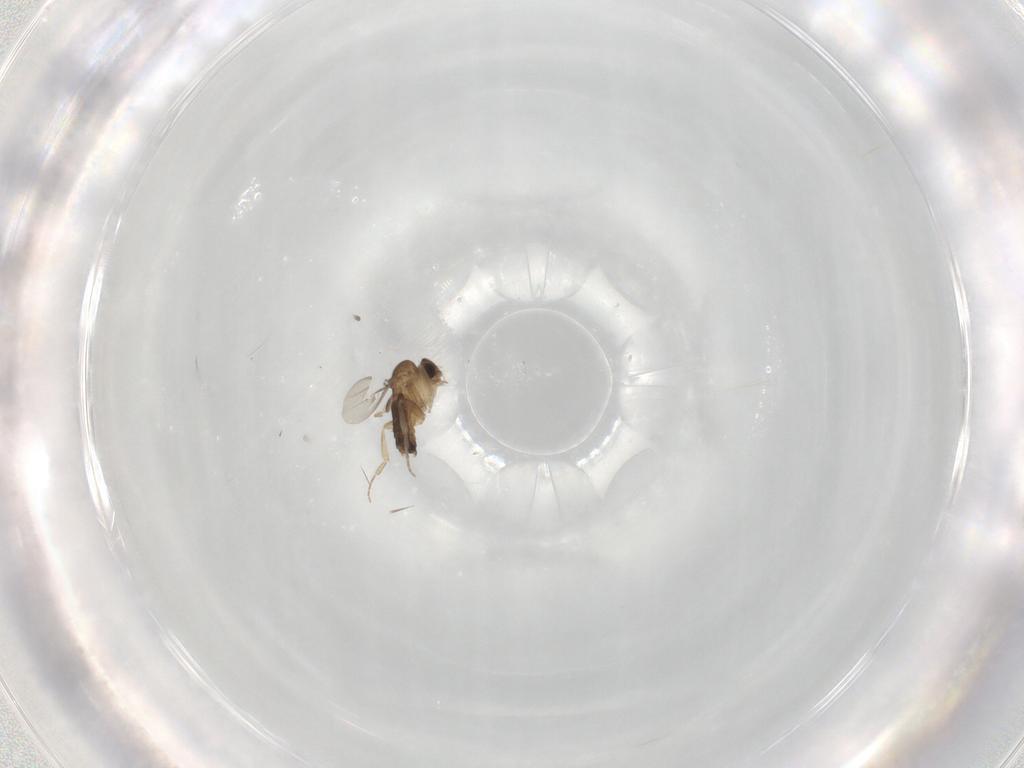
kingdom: Animalia
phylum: Arthropoda
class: Insecta
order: Diptera
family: Phoridae
